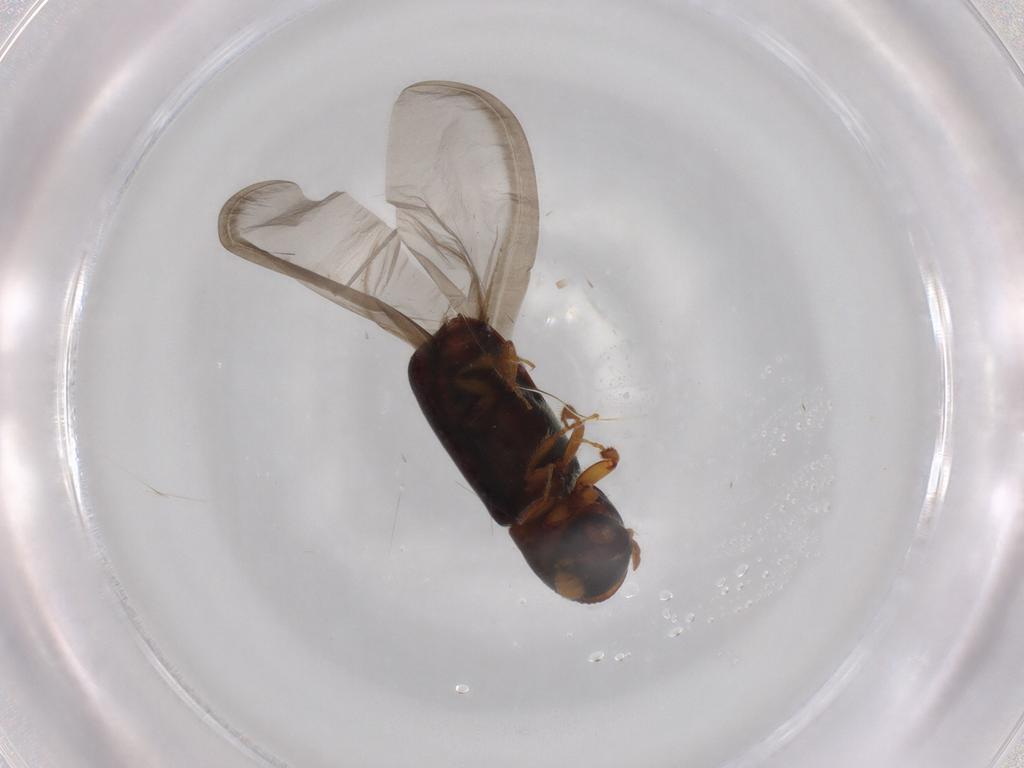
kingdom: Animalia
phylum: Arthropoda
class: Insecta
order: Coleoptera
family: Curculionidae
